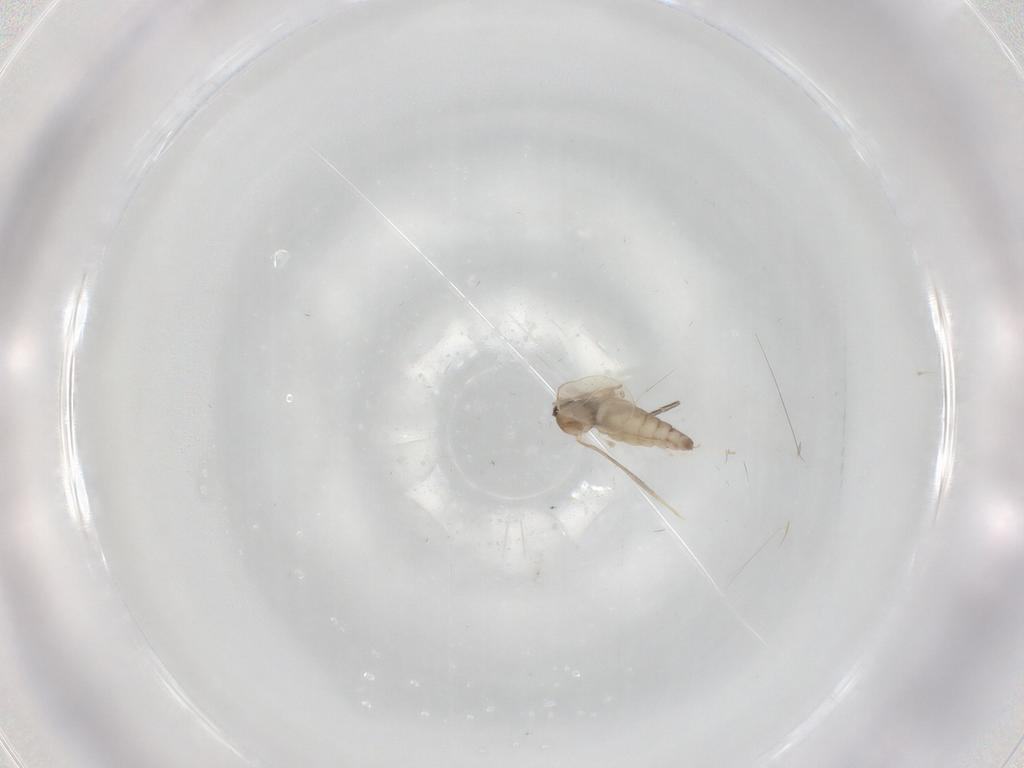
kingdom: Animalia
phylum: Arthropoda
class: Insecta
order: Diptera
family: Cecidomyiidae
